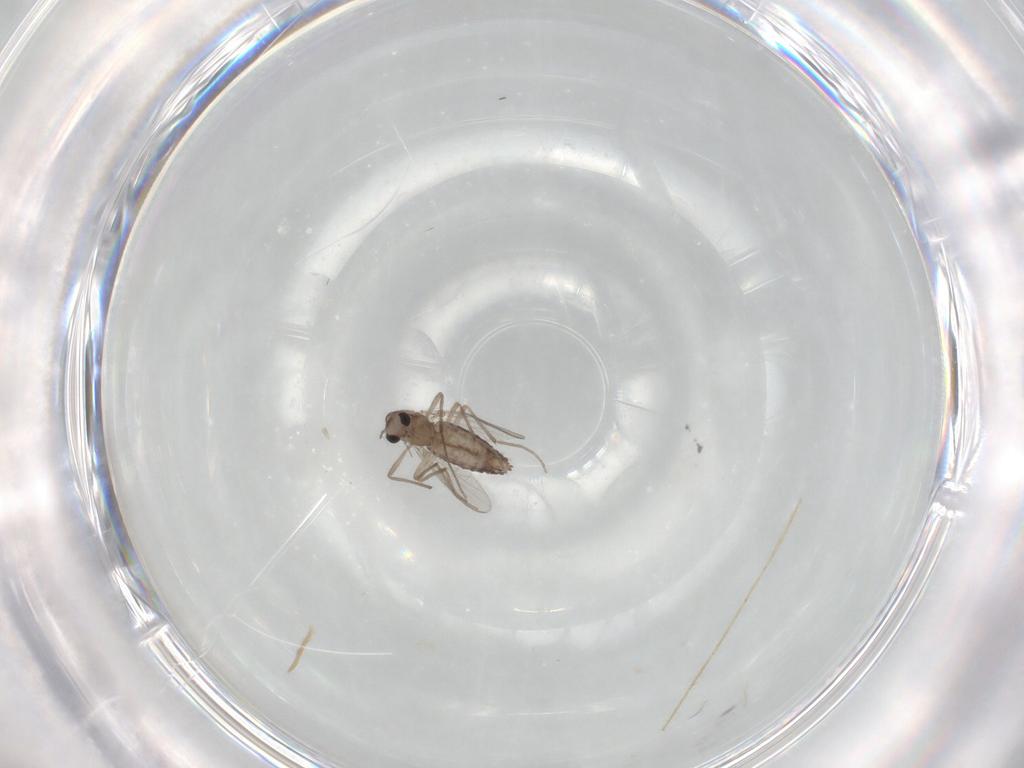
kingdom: Animalia
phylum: Arthropoda
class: Insecta
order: Diptera
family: Chironomidae
